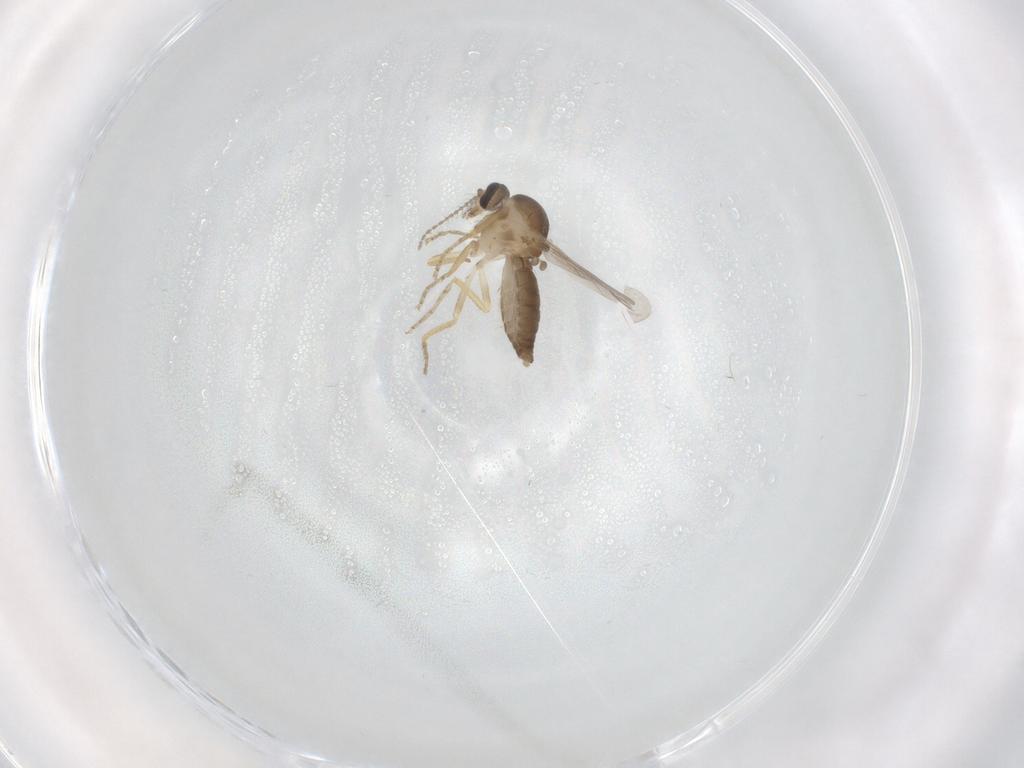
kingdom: Animalia
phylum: Arthropoda
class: Insecta
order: Diptera
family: Ceratopogonidae
